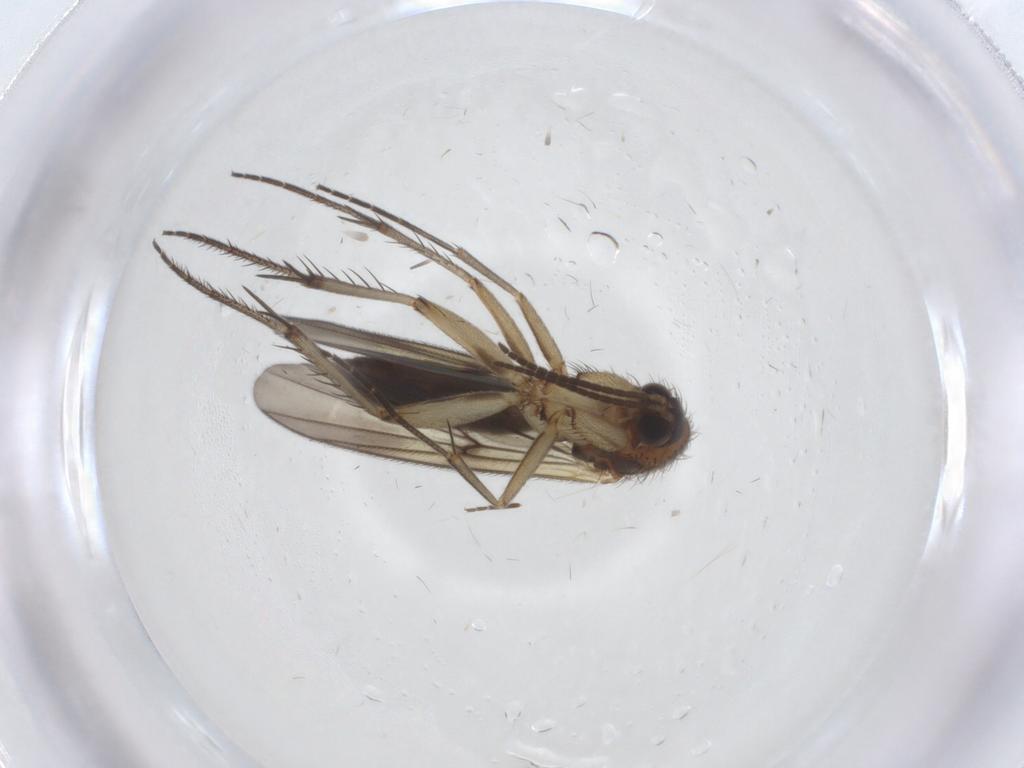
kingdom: Animalia
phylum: Arthropoda
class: Insecta
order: Diptera
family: Mycetophilidae
